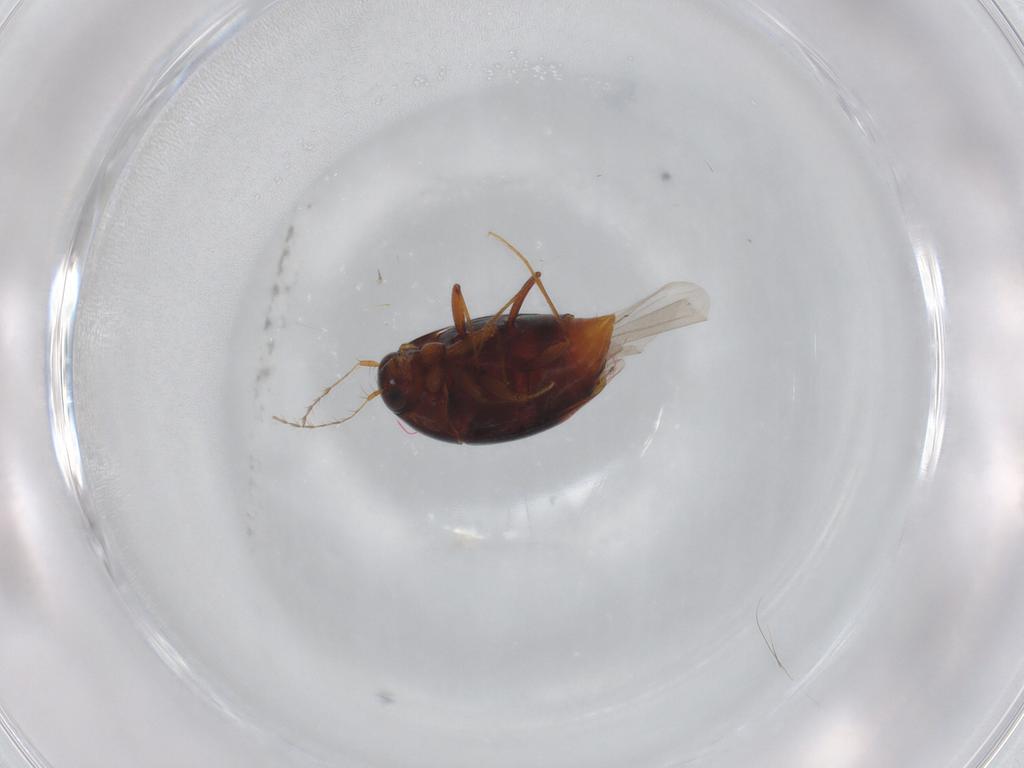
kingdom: Animalia
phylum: Arthropoda
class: Insecta
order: Coleoptera
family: Staphylinidae
